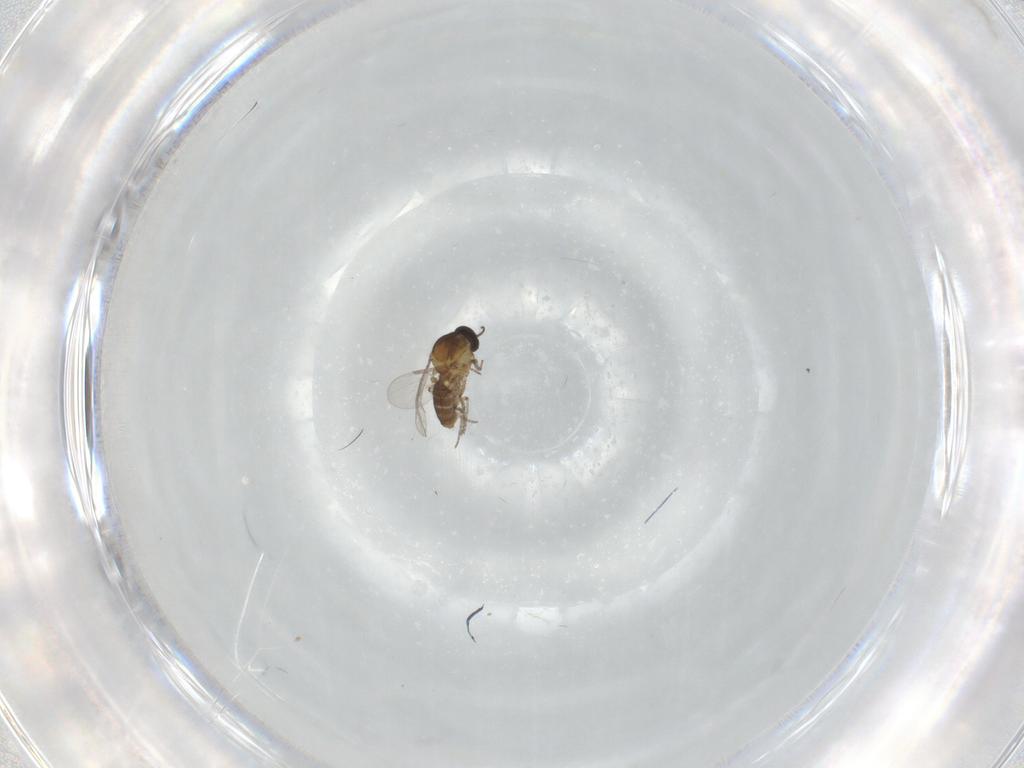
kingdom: Animalia
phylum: Arthropoda
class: Insecta
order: Diptera
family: Ceratopogonidae
